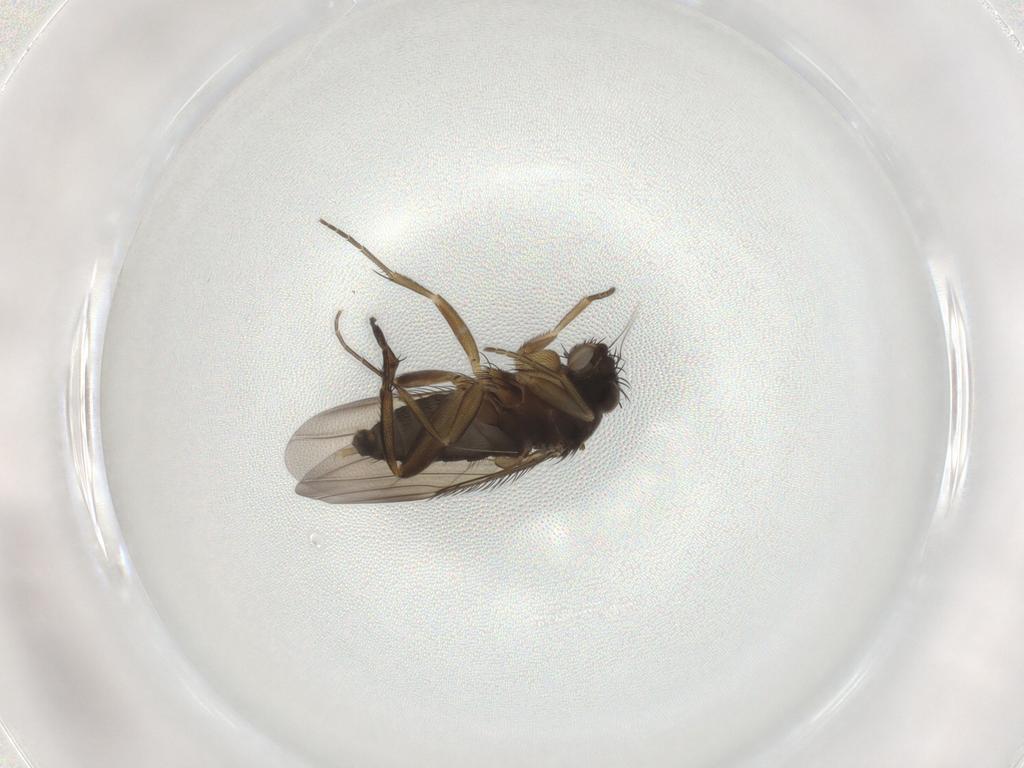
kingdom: Animalia
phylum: Arthropoda
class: Insecta
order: Diptera
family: Phoridae
